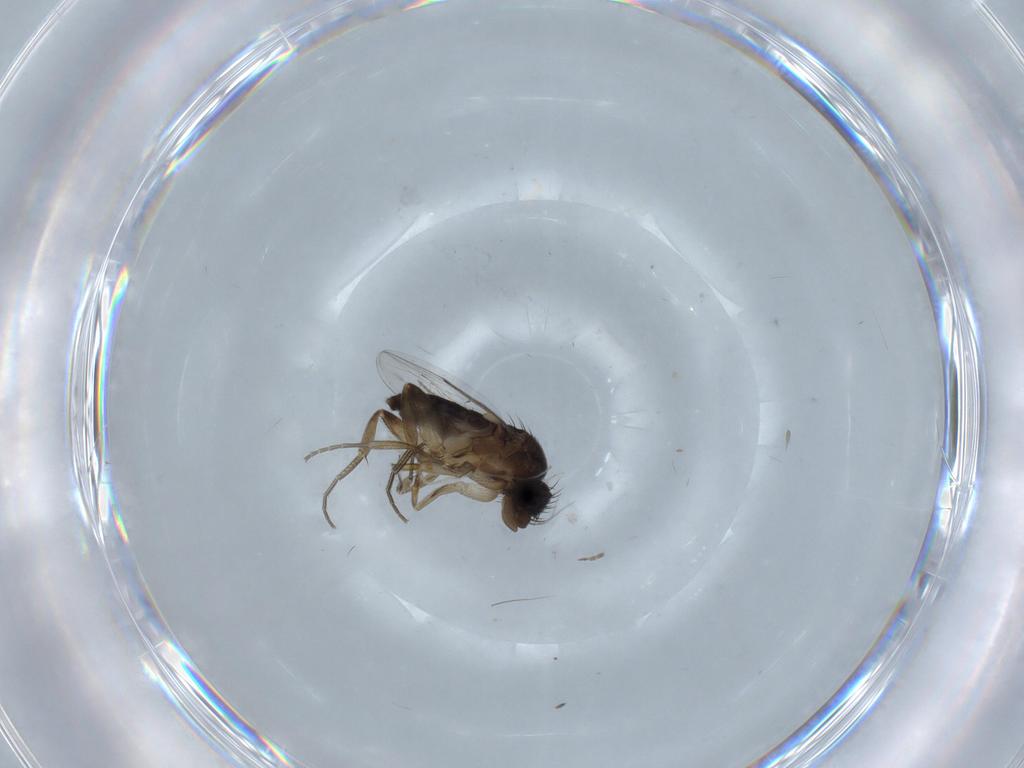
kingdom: Animalia
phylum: Arthropoda
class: Insecta
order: Diptera
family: Phoridae
